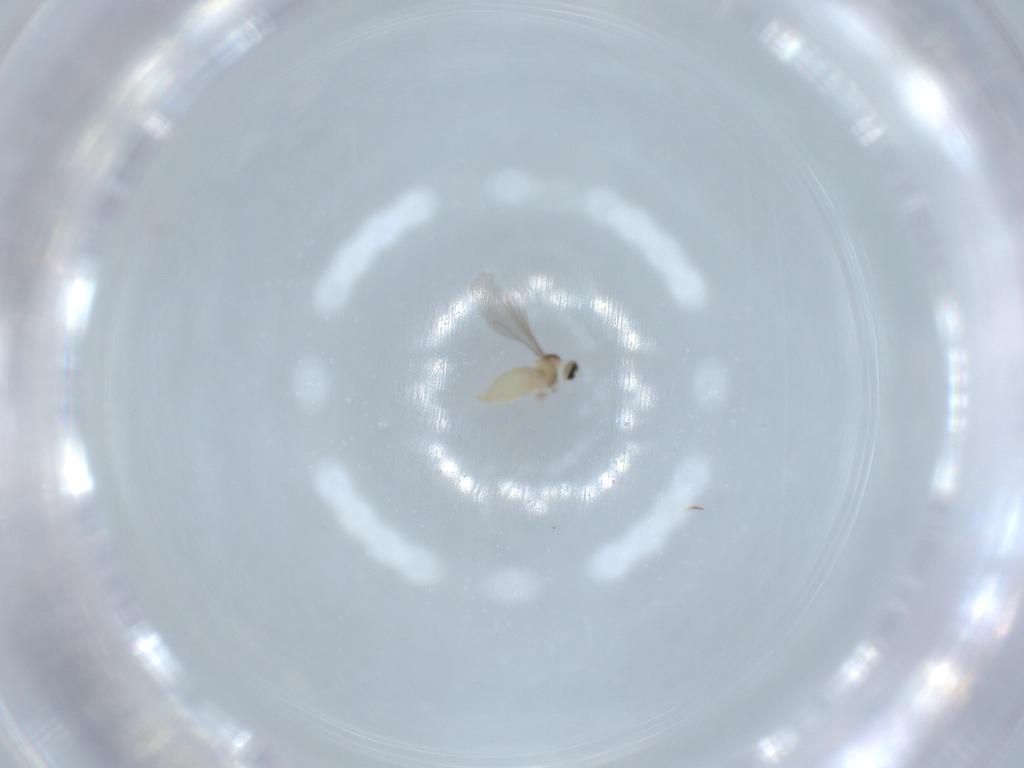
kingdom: Animalia
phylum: Arthropoda
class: Insecta
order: Diptera
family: Cecidomyiidae
